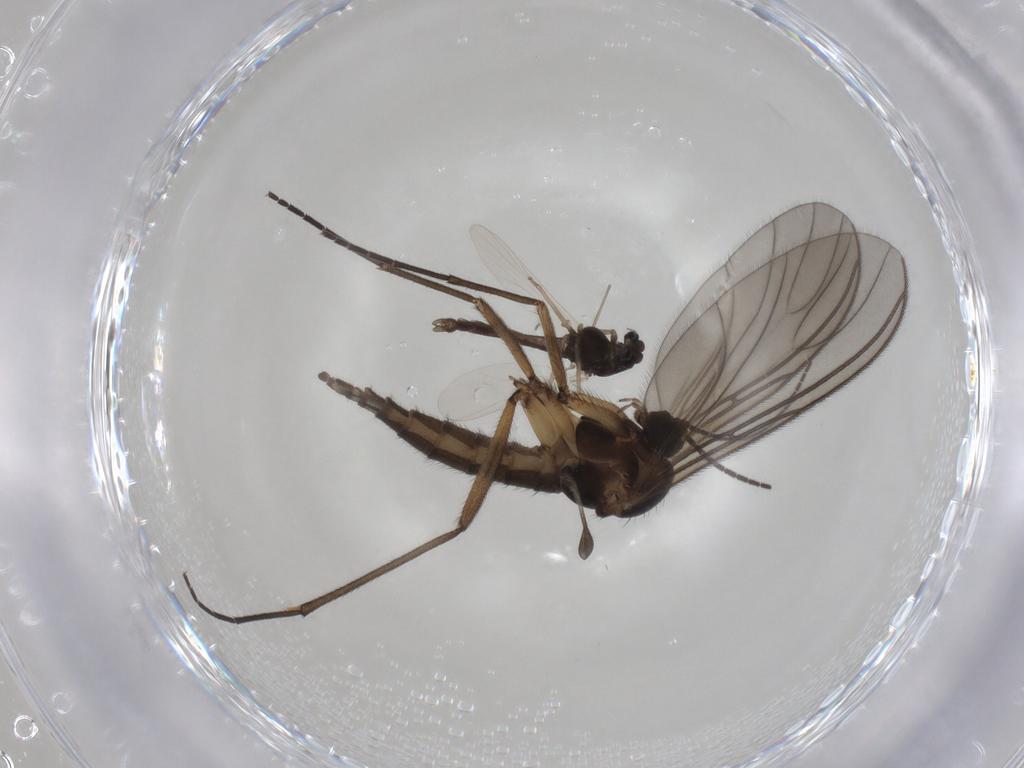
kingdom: Animalia
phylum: Arthropoda
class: Insecta
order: Diptera
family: Chironomidae
